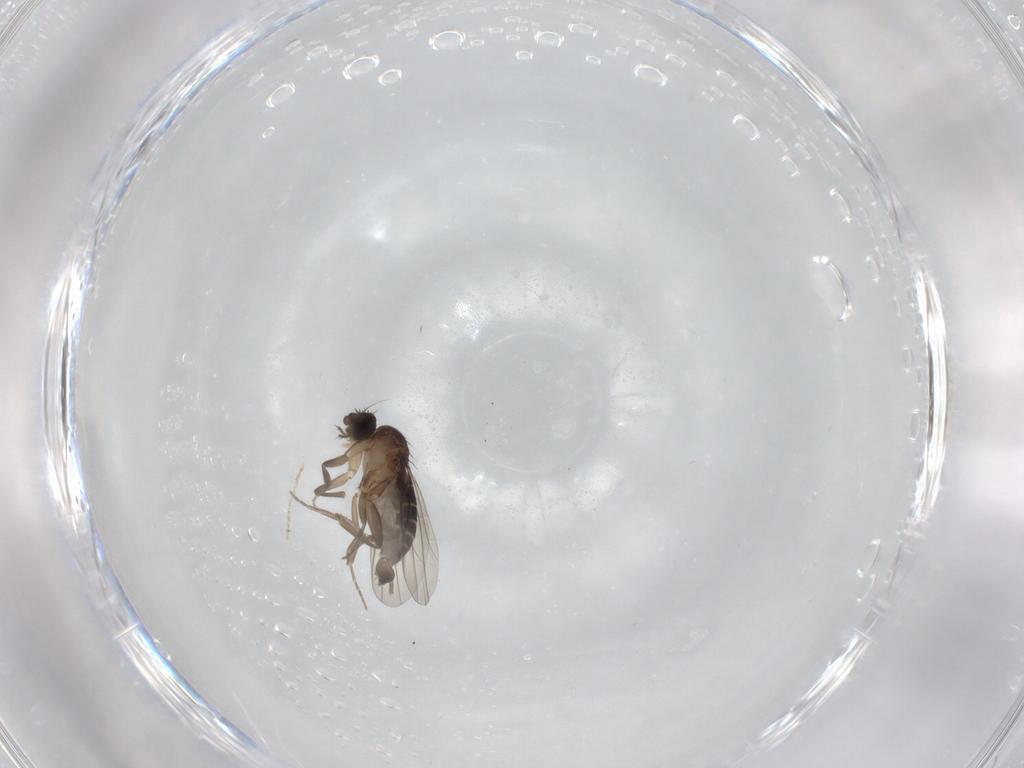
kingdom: Animalia
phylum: Arthropoda
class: Insecta
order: Diptera
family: Phoridae
